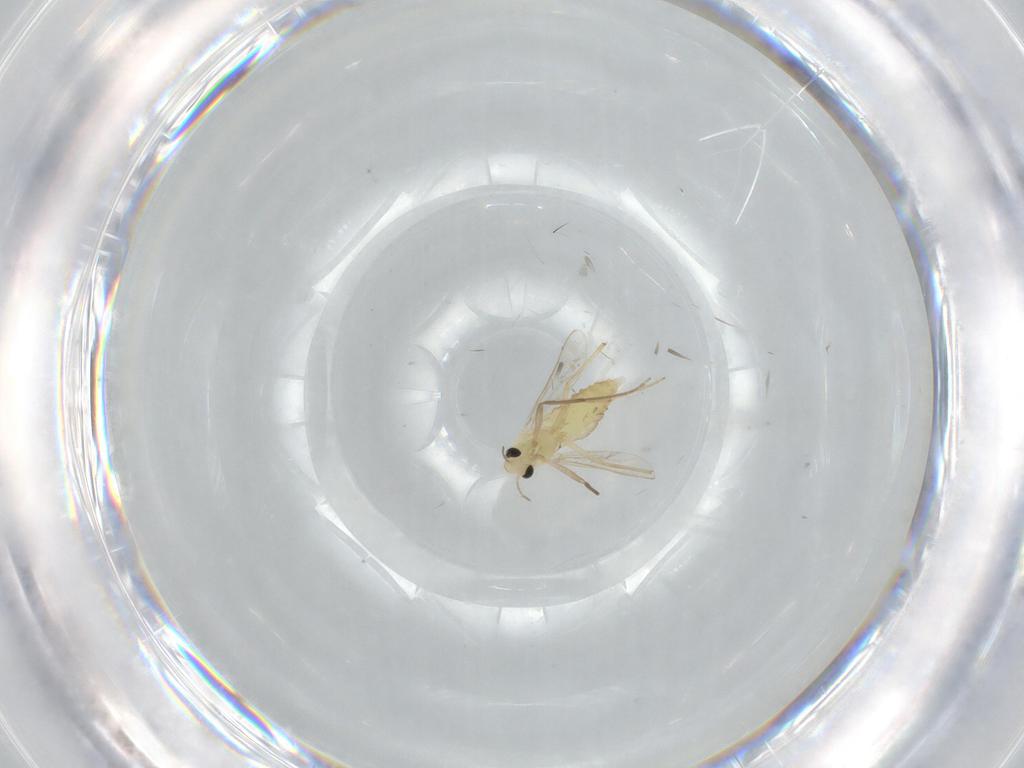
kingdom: Animalia
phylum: Arthropoda
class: Insecta
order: Diptera
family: Chironomidae
